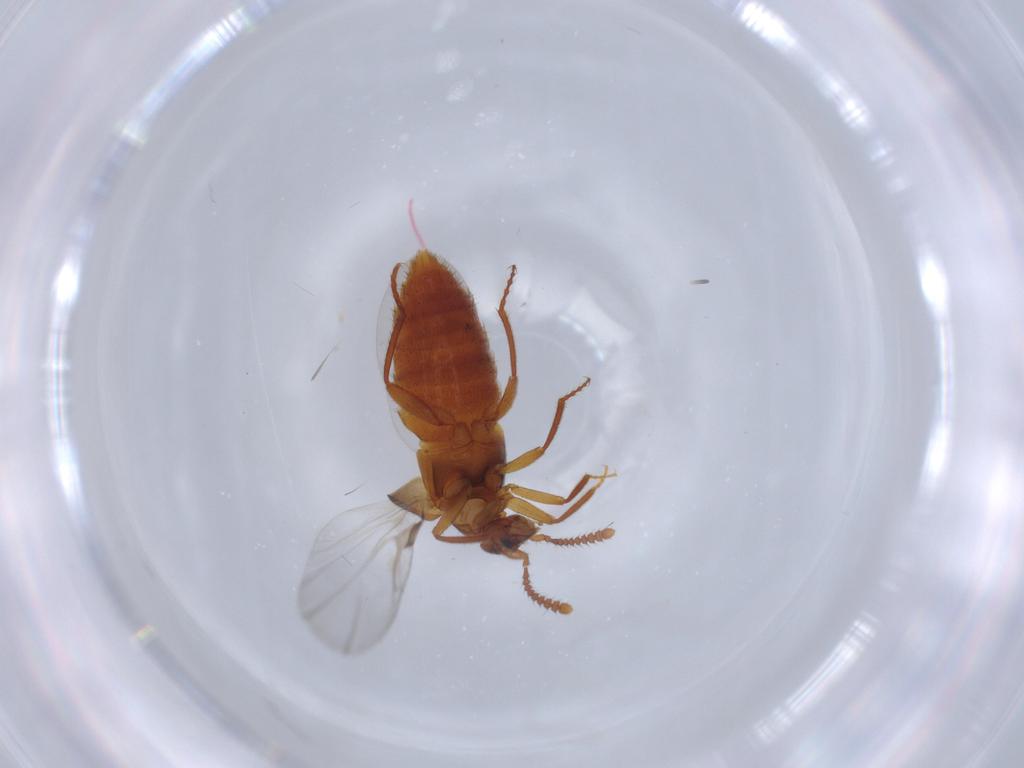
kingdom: Animalia
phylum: Arthropoda
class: Insecta
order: Coleoptera
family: Staphylinidae
